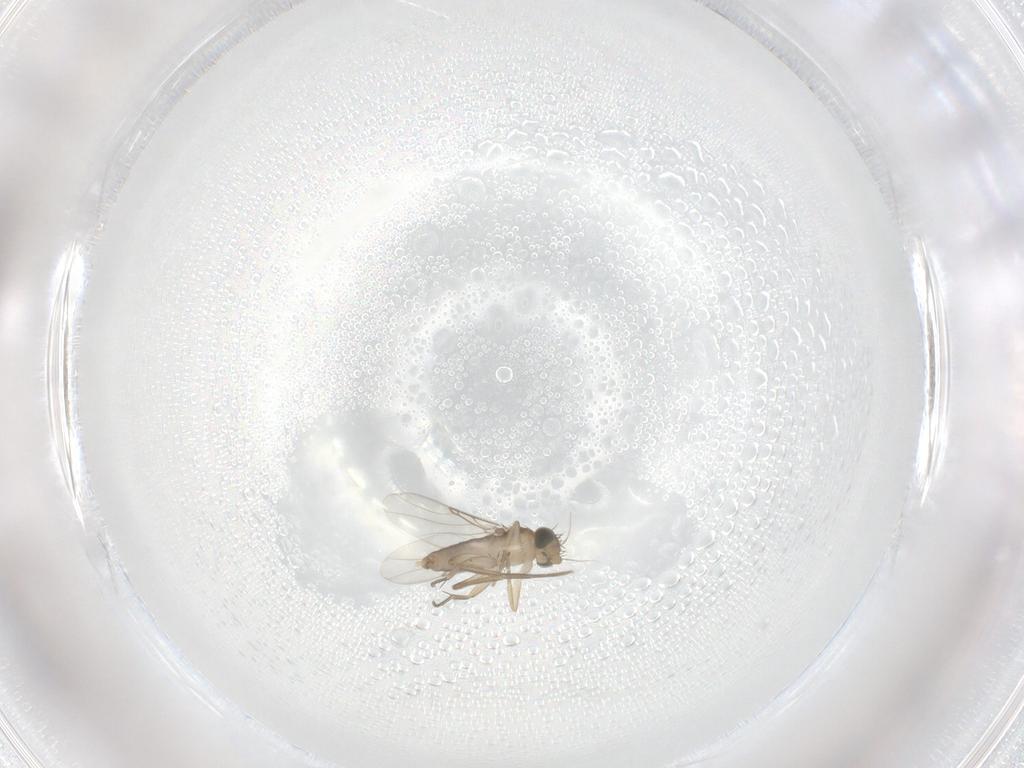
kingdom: Animalia
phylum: Arthropoda
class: Insecta
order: Diptera
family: Phoridae
